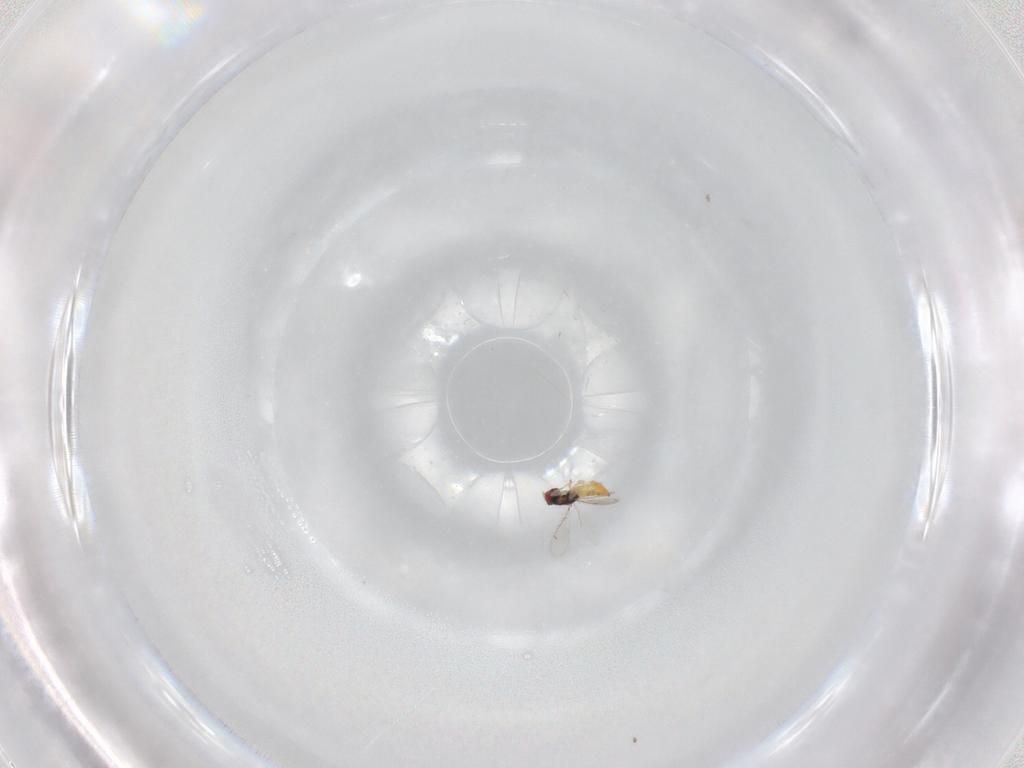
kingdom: Animalia
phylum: Arthropoda
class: Insecta
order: Hymenoptera
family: Eulophidae
